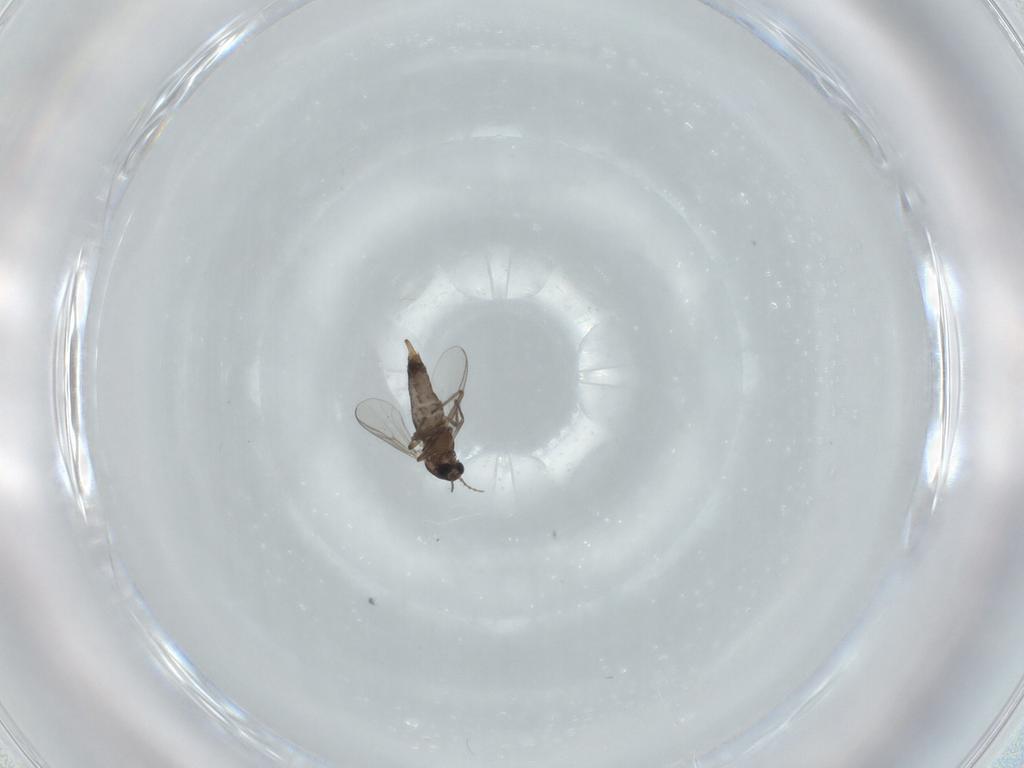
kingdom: Animalia
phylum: Arthropoda
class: Insecta
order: Diptera
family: Chironomidae
